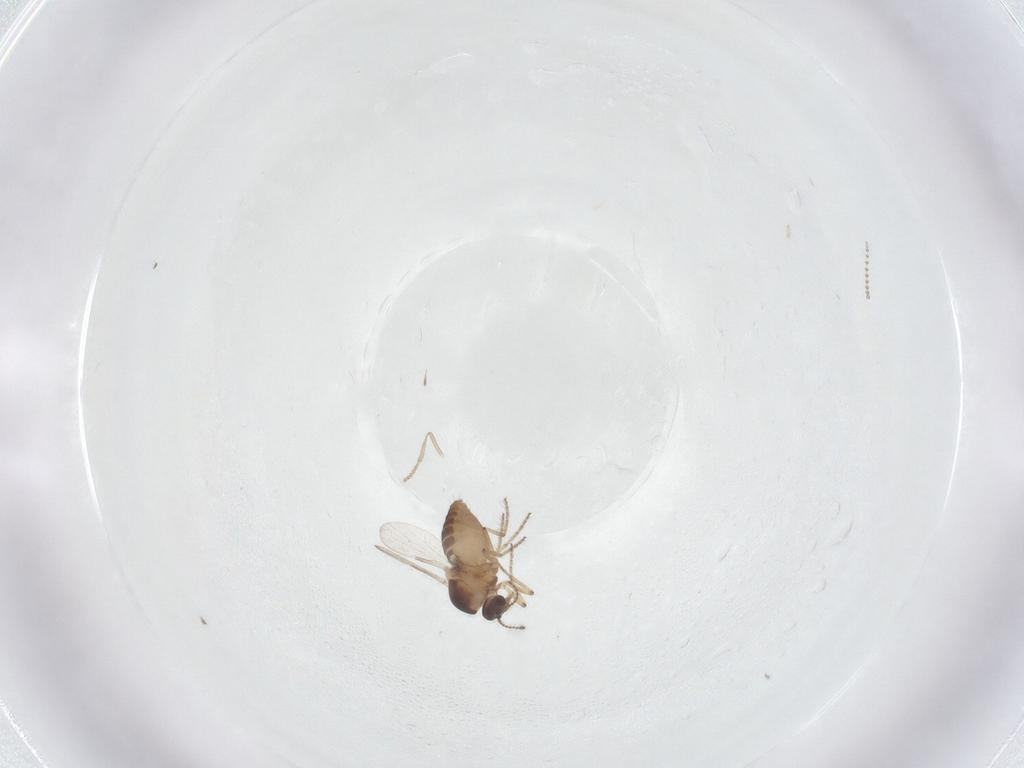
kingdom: Animalia
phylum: Arthropoda
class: Insecta
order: Diptera
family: Ceratopogonidae
